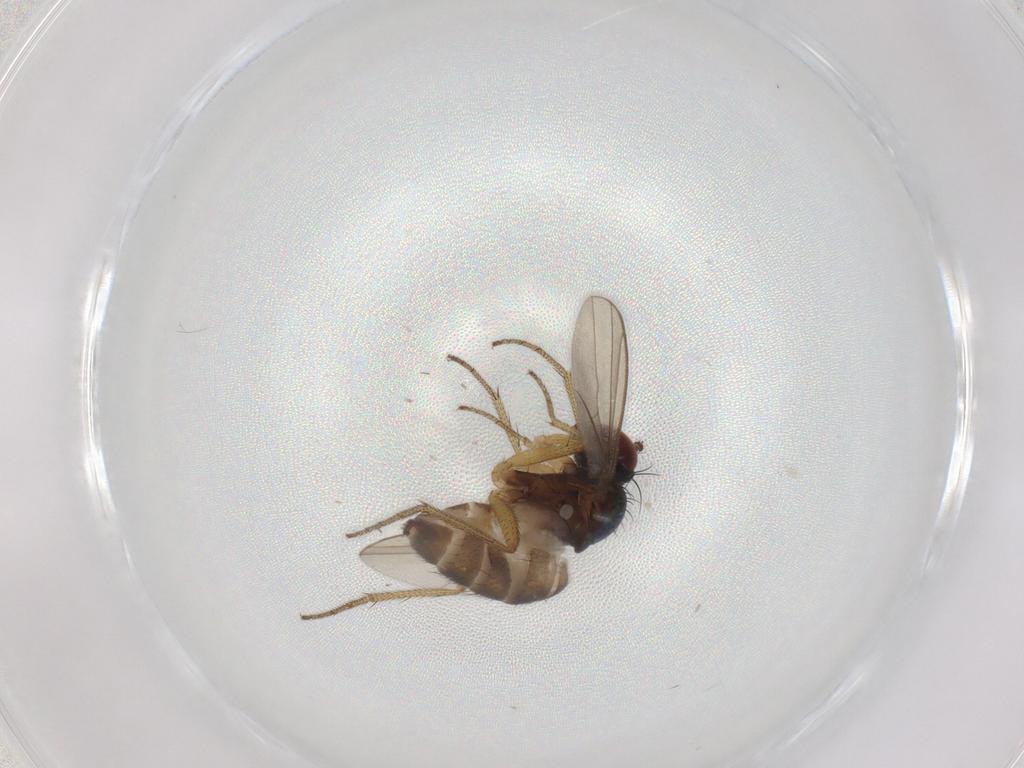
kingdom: Animalia
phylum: Arthropoda
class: Insecta
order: Diptera
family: Dolichopodidae
